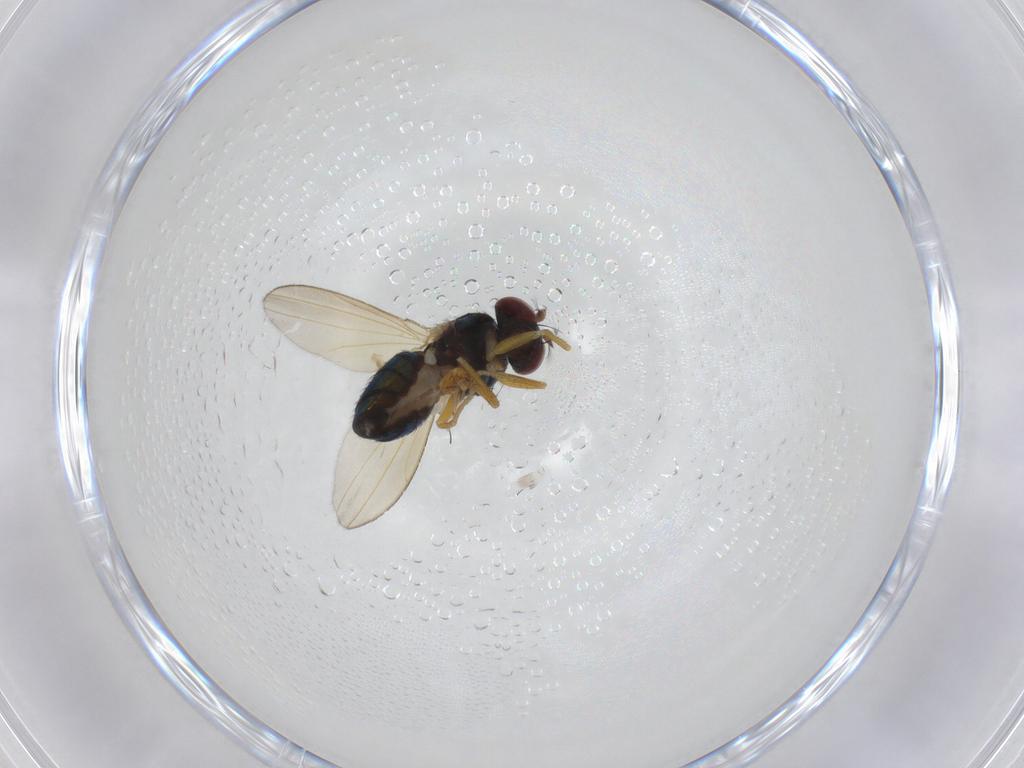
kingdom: Animalia
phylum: Arthropoda
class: Insecta
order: Diptera
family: Ephydridae
